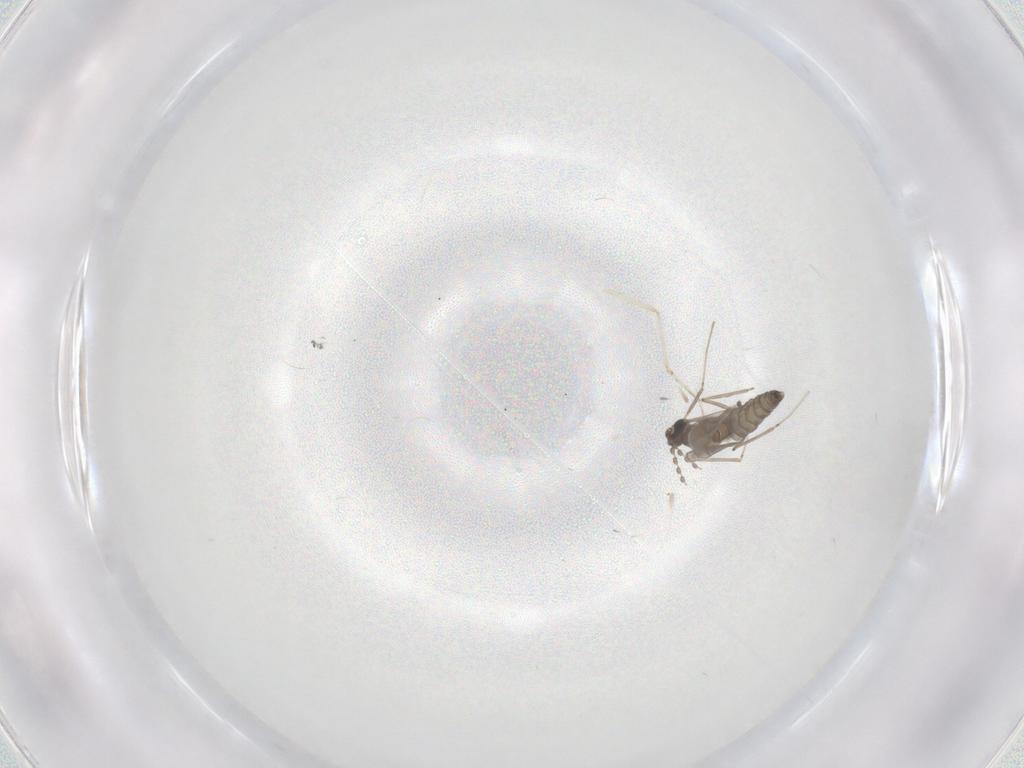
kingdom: Animalia
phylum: Arthropoda
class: Insecta
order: Diptera
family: Cecidomyiidae
